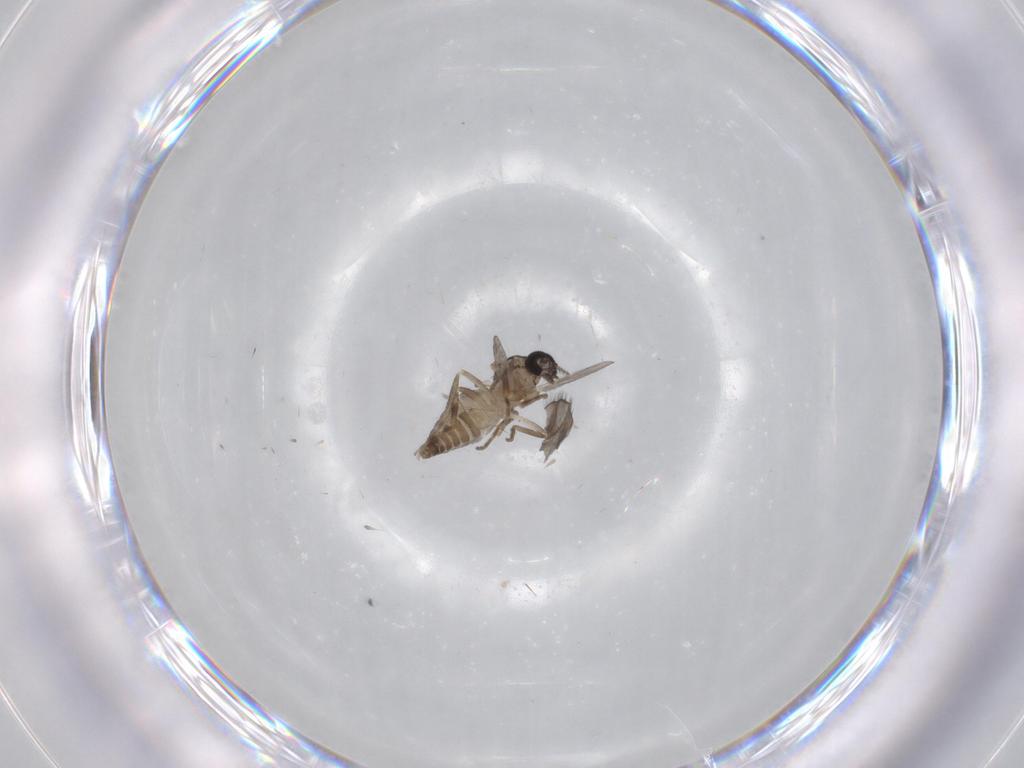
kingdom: Animalia
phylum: Arthropoda
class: Insecta
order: Diptera
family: Ceratopogonidae
